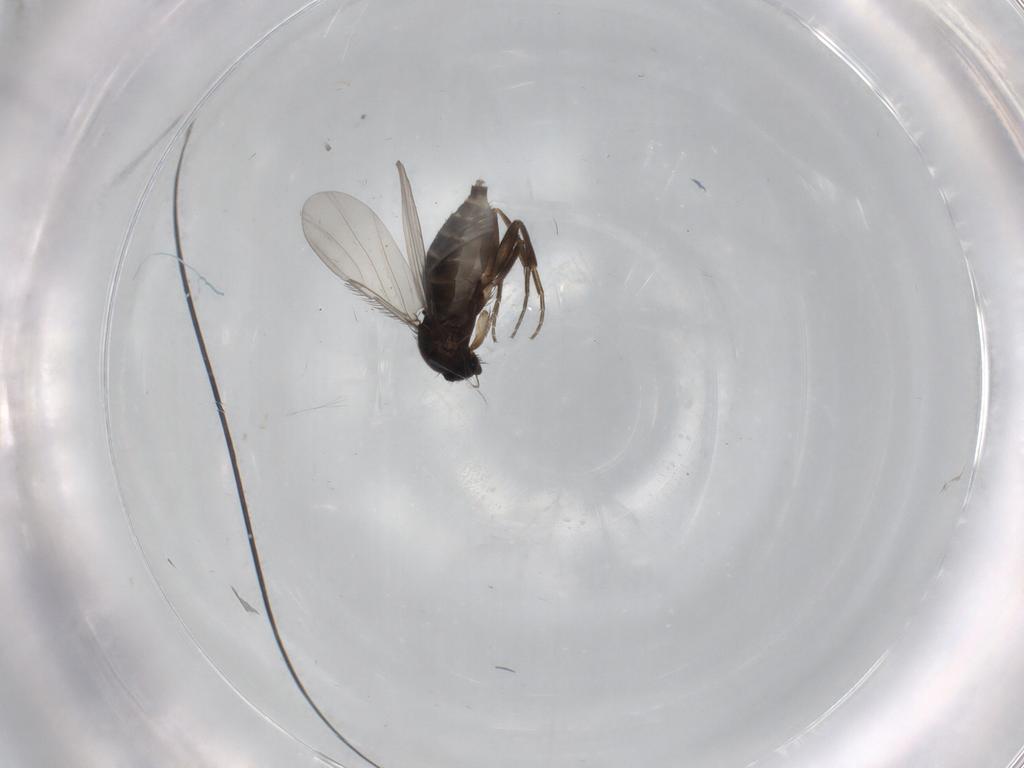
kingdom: Animalia
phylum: Arthropoda
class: Insecta
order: Diptera
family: Phoridae
